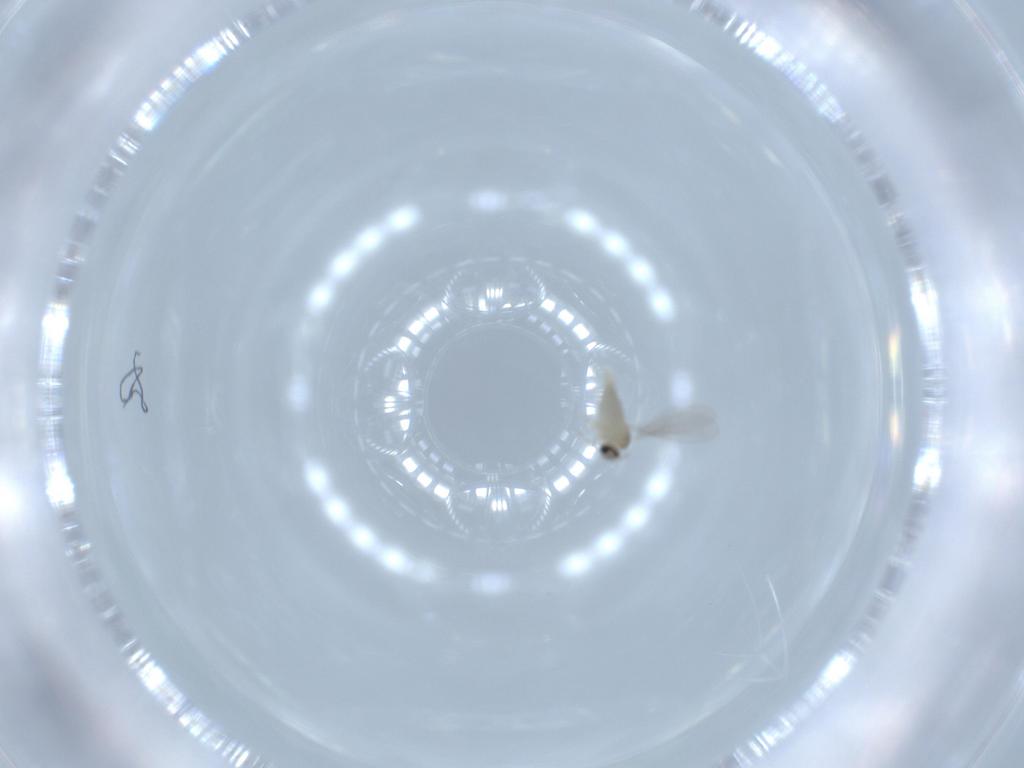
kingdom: Animalia
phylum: Arthropoda
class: Insecta
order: Diptera
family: Cecidomyiidae
